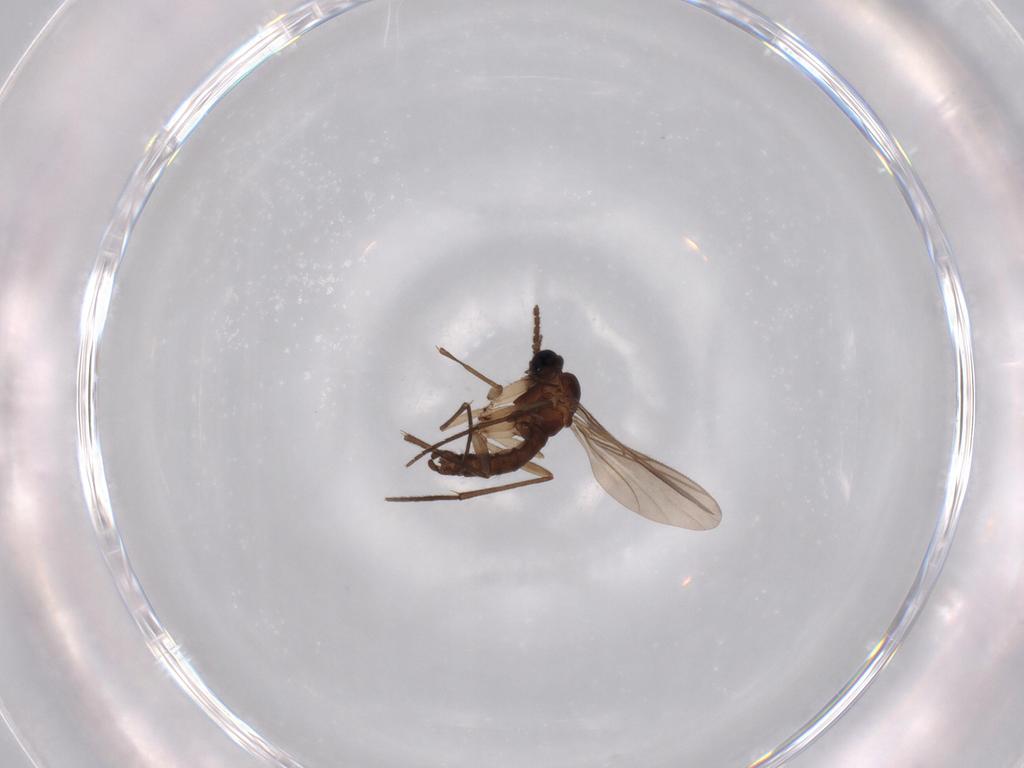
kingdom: Animalia
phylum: Arthropoda
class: Insecta
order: Diptera
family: Sciaridae
